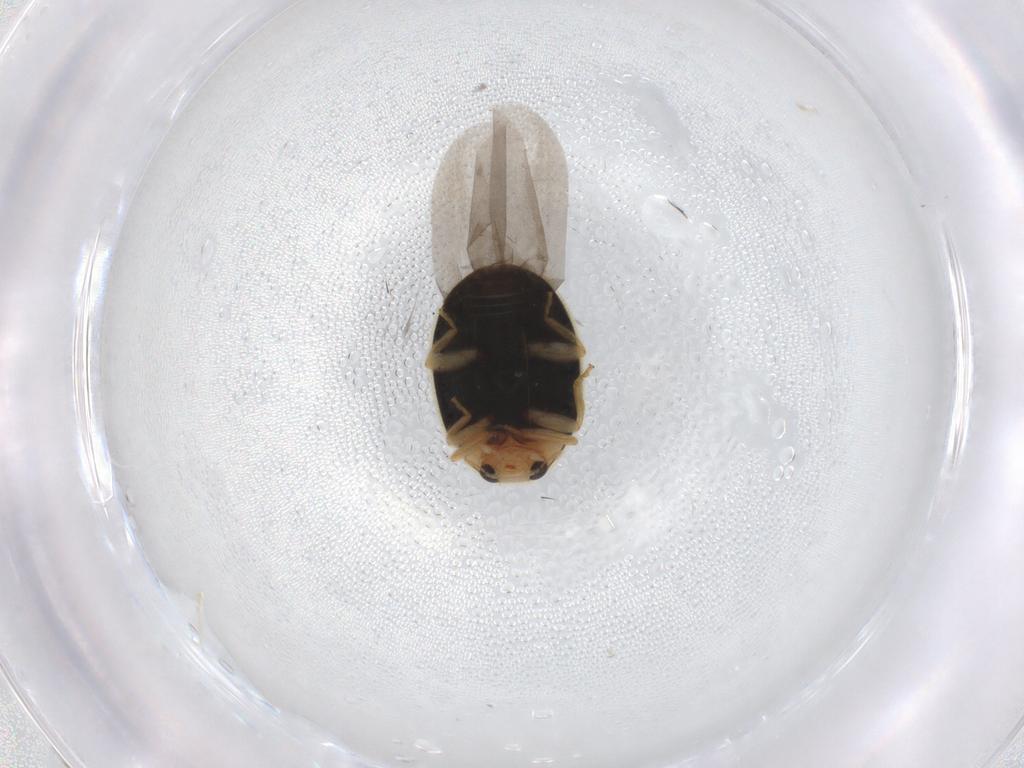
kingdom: Animalia
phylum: Arthropoda
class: Insecta
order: Coleoptera
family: Coccinellidae
